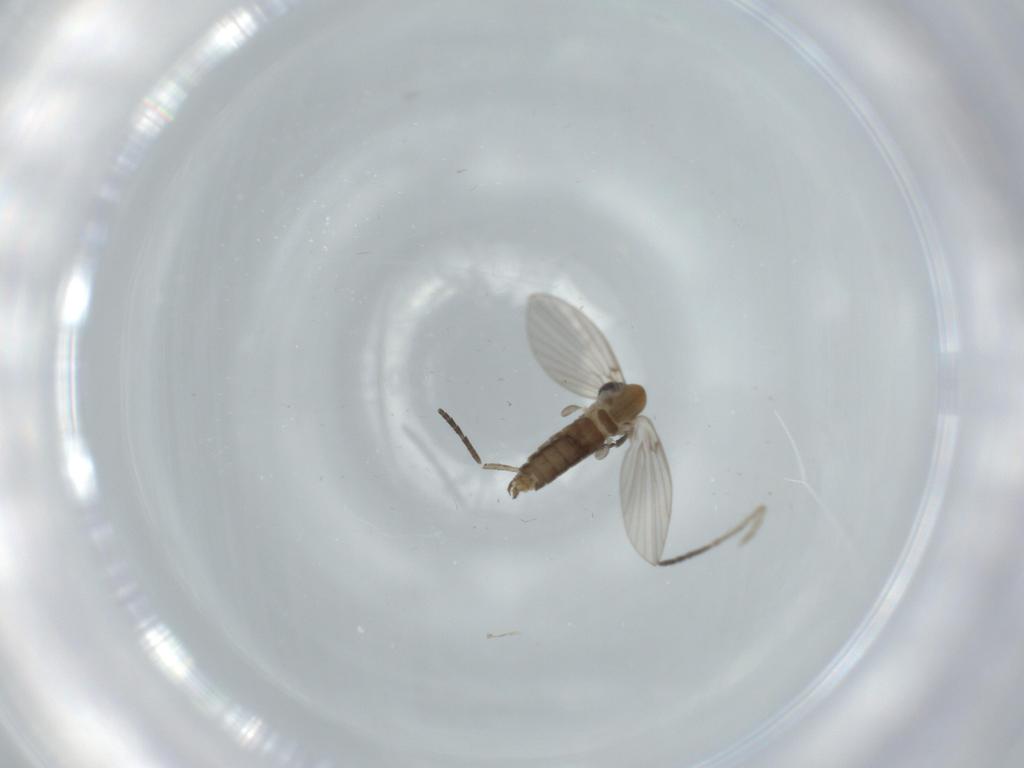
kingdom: Animalia
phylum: Arthropoda
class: Insecta
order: Diptera
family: Psychodidae
